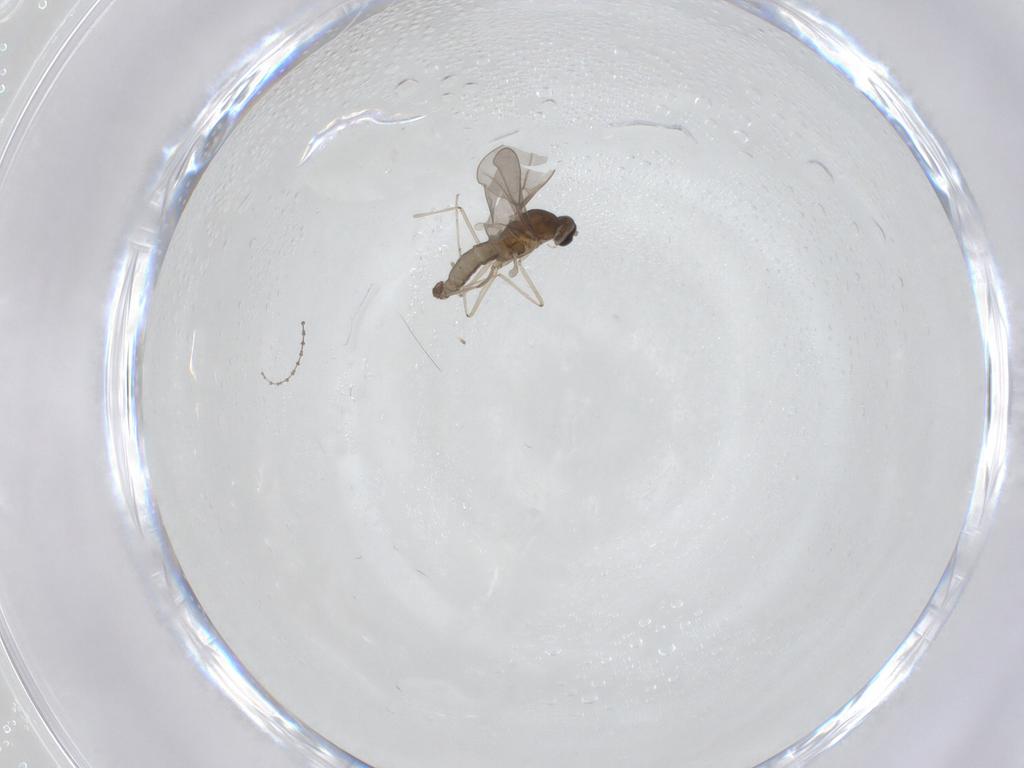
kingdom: Animalia
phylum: Arthropoda
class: Insecta
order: Diptera
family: Cecidomyiidae
